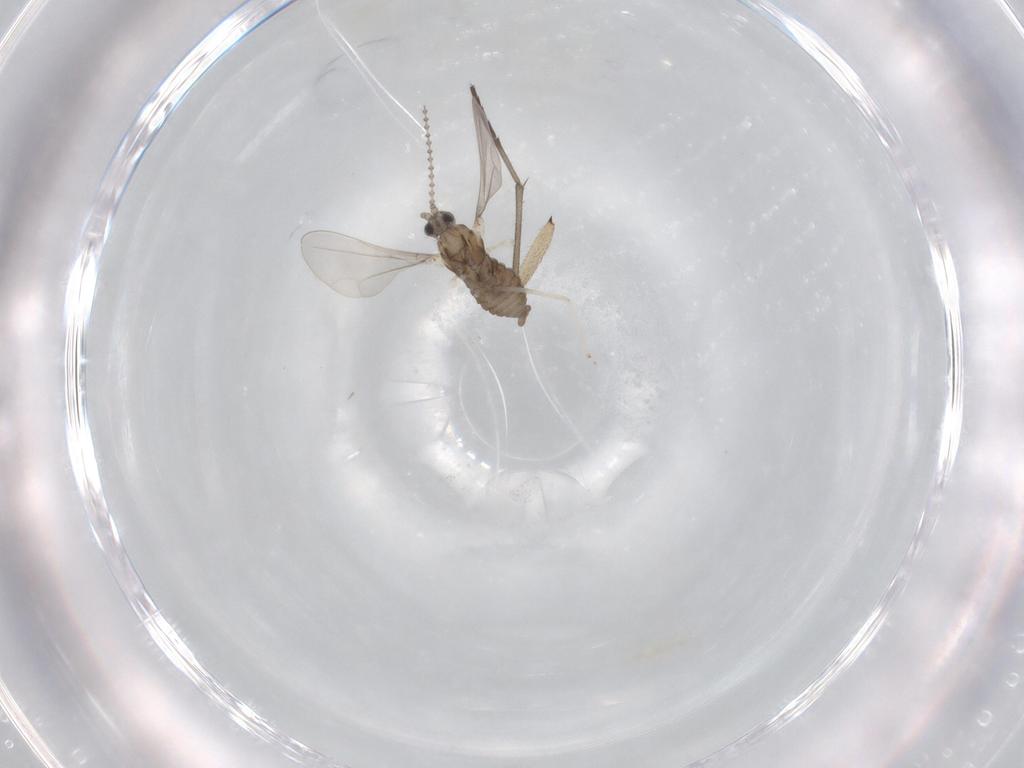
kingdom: Animalia
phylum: Arthropoda
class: Insecta
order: Diptera
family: Cecidomyiidae
